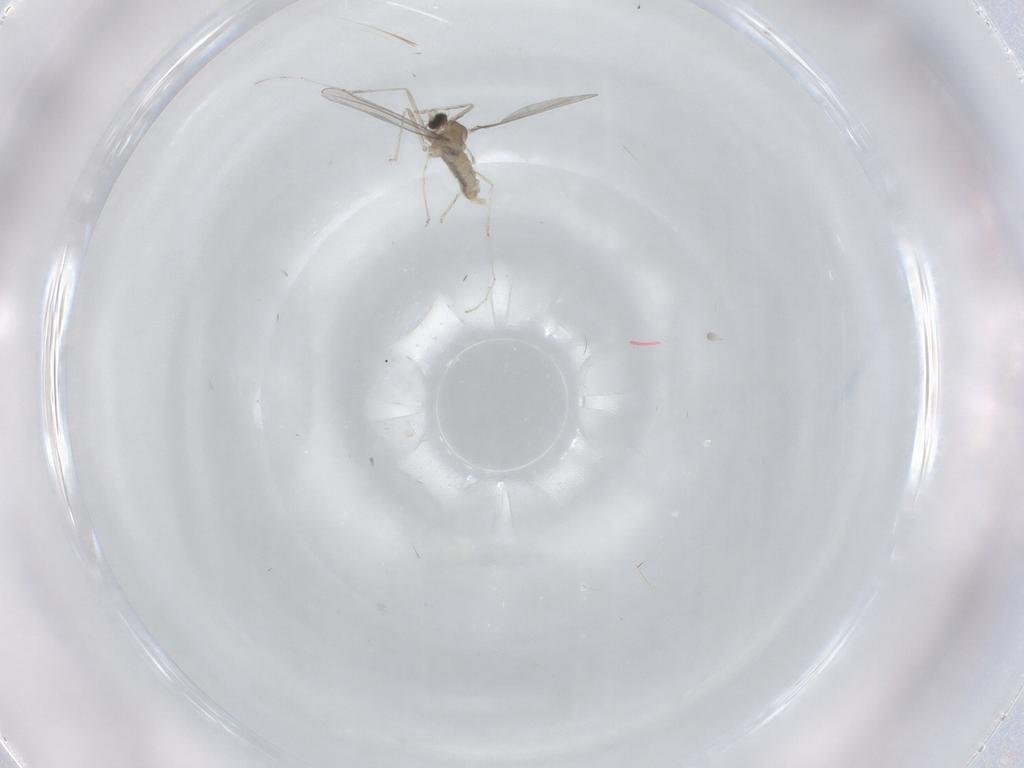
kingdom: Animalia
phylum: Arthropoda
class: Insecta
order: Diptera
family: Cecidomyiidae
